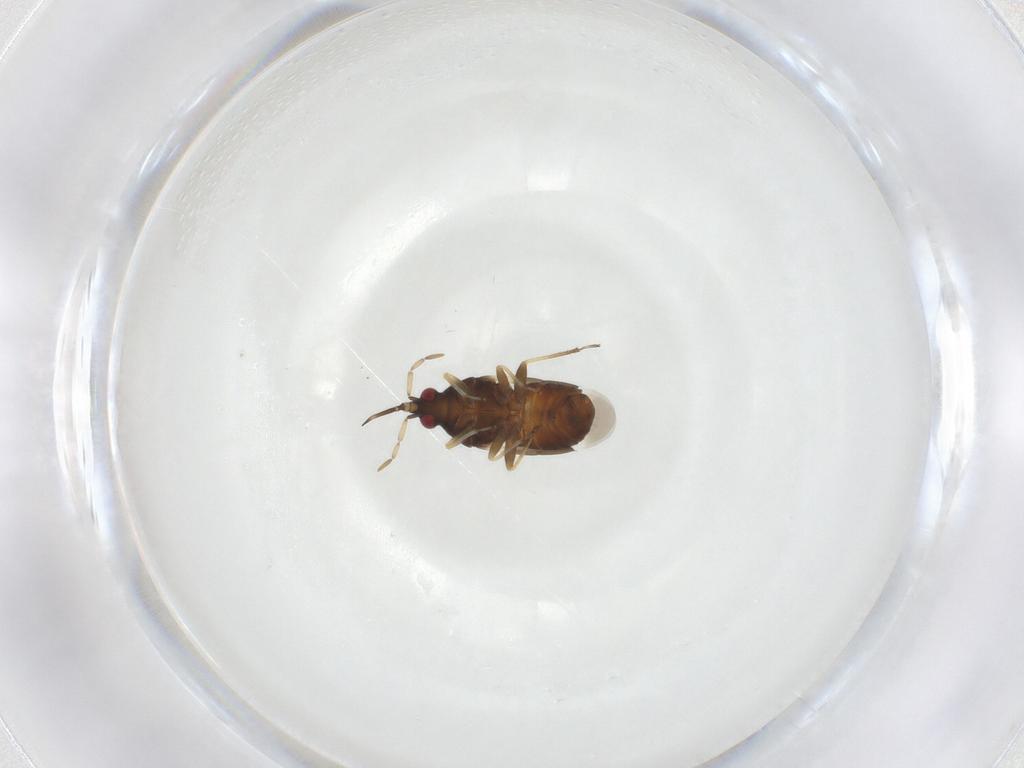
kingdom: Animalia
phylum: Arthropoda
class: Insecta
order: Hemiptera
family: Anthocoridae
